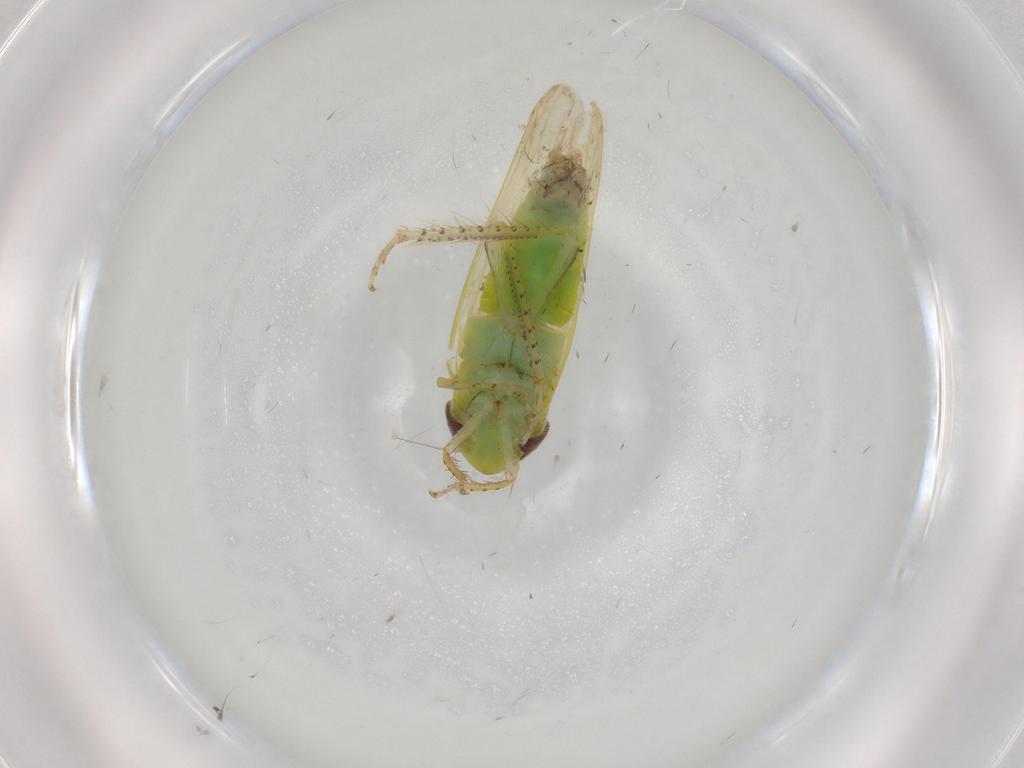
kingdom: Animalia
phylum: Arthropoda
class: Insecta
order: Hemiptera
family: Cicadellidae
